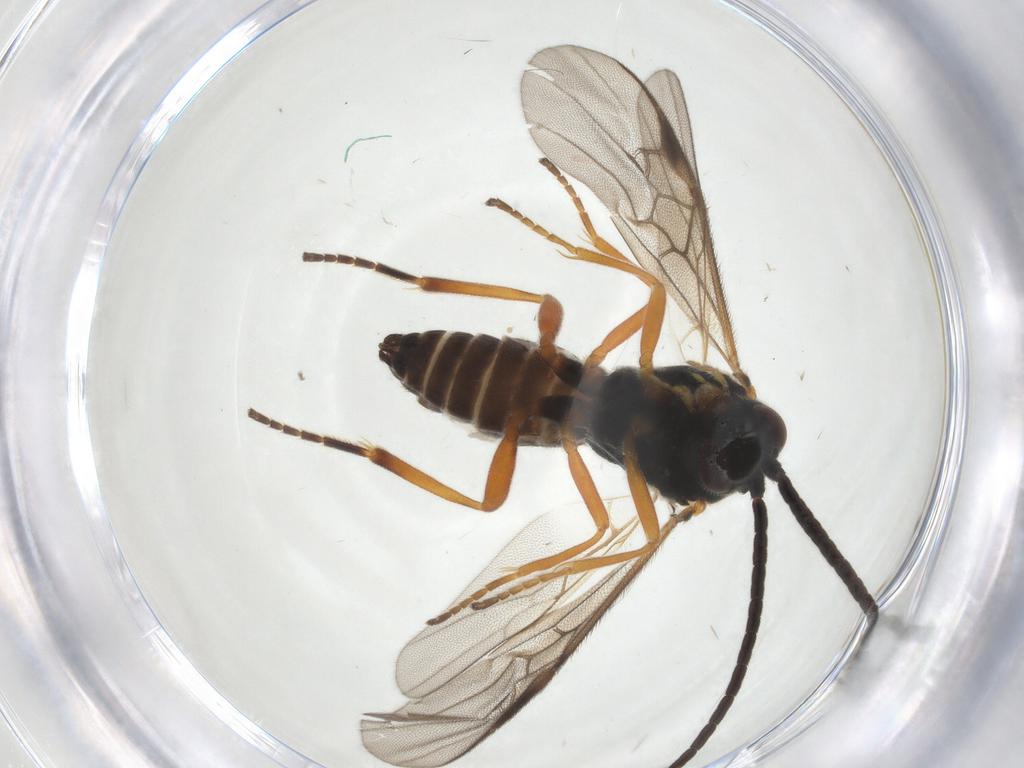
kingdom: Animalia
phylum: Arthropoda
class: Insecta
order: Hymenoptera
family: Braconidae
